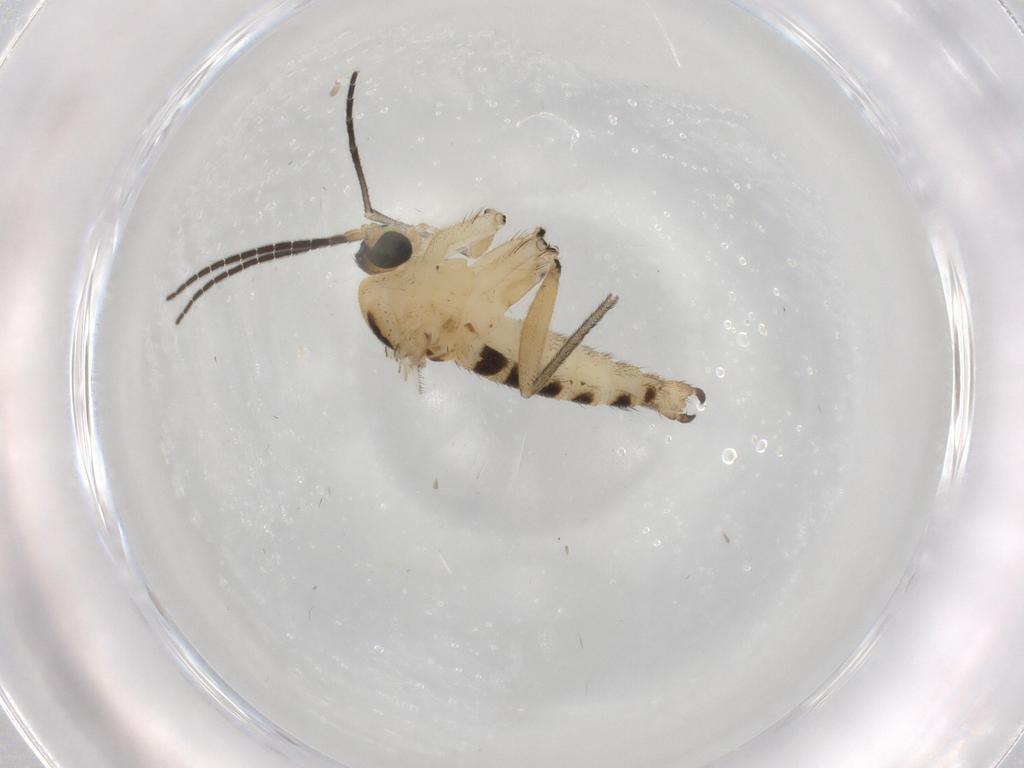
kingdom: Animalia
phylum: Arthropoda
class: Insecta
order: Diptera
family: Sciaridae
